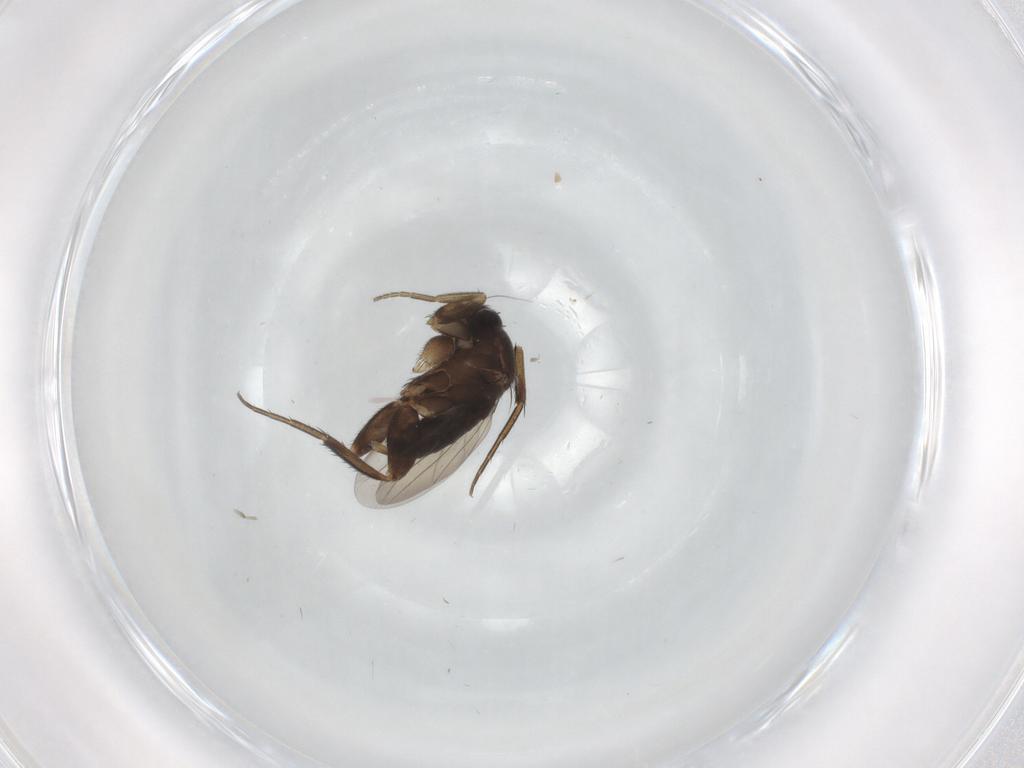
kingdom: Animalia
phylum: Arthropoda
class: Insecta
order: Diptera
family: Phoridae
